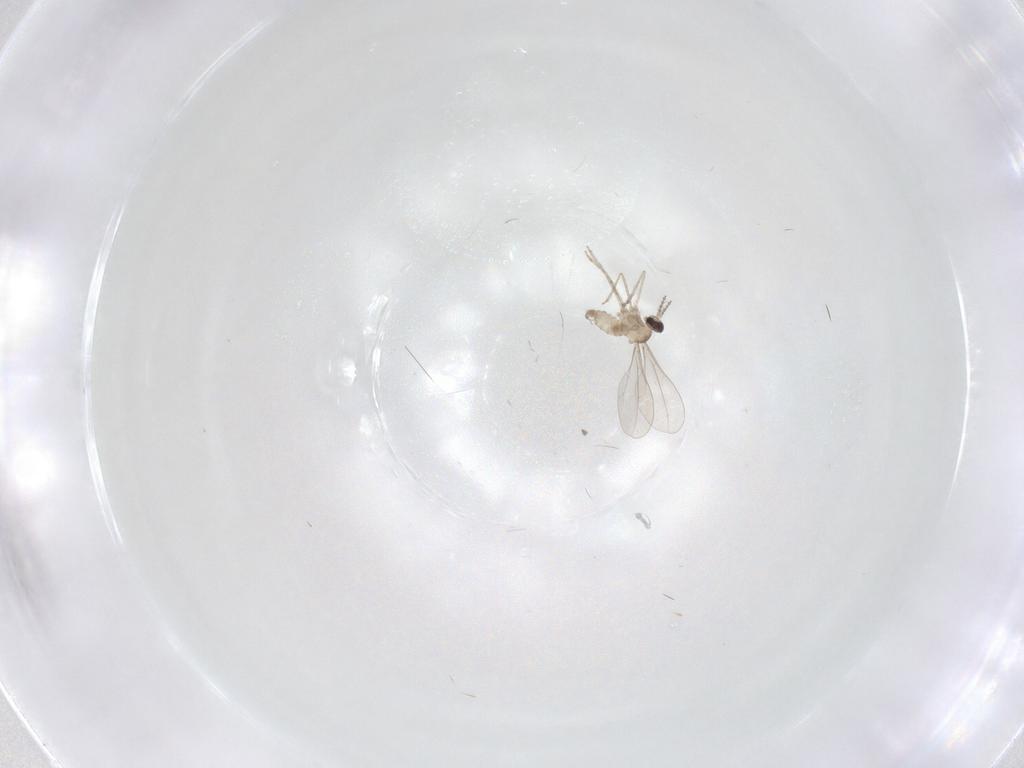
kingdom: Animalia
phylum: Arthropoda
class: Insecta
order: Diptera
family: Cecidomyiidae
